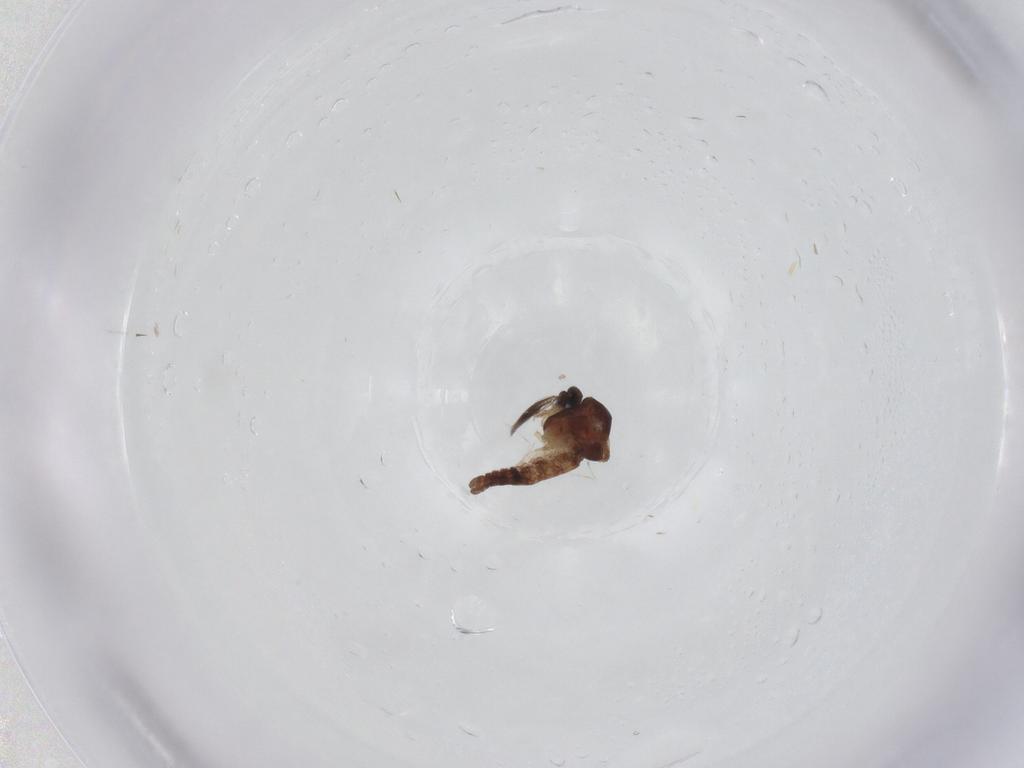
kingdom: Animalia
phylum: Arthropoda
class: Insecta
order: Diptera
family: Ceratopogonidae
